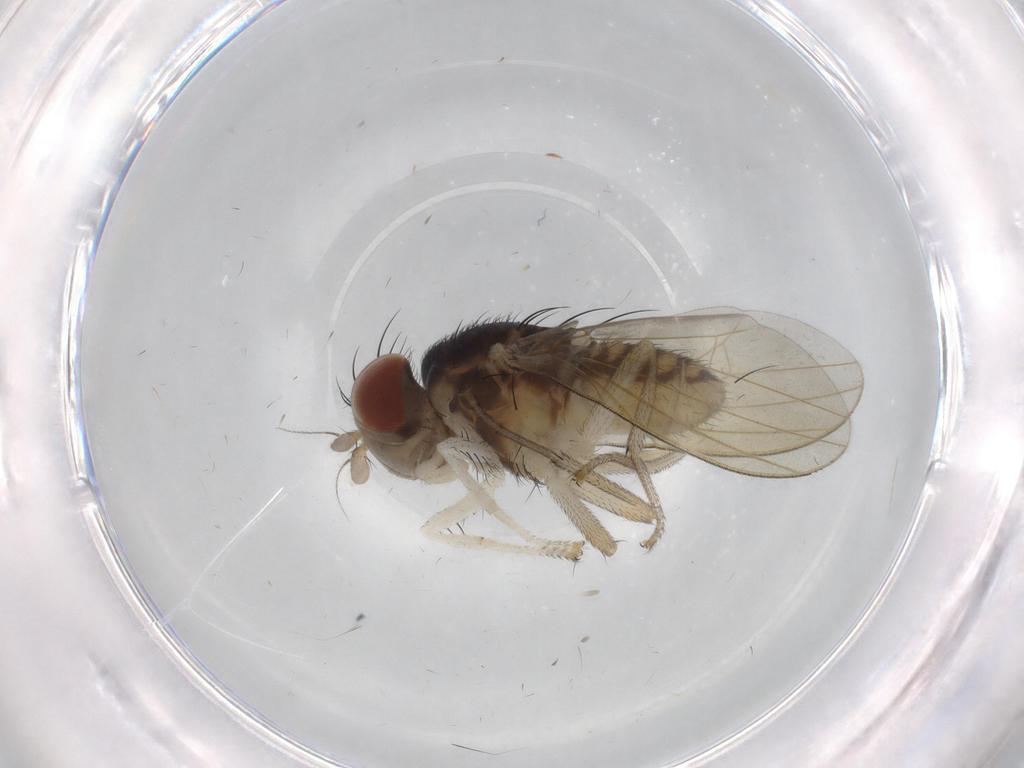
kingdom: Animalia
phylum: Arthropoda
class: Insecta
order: Diptera
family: Lauxaniidae
